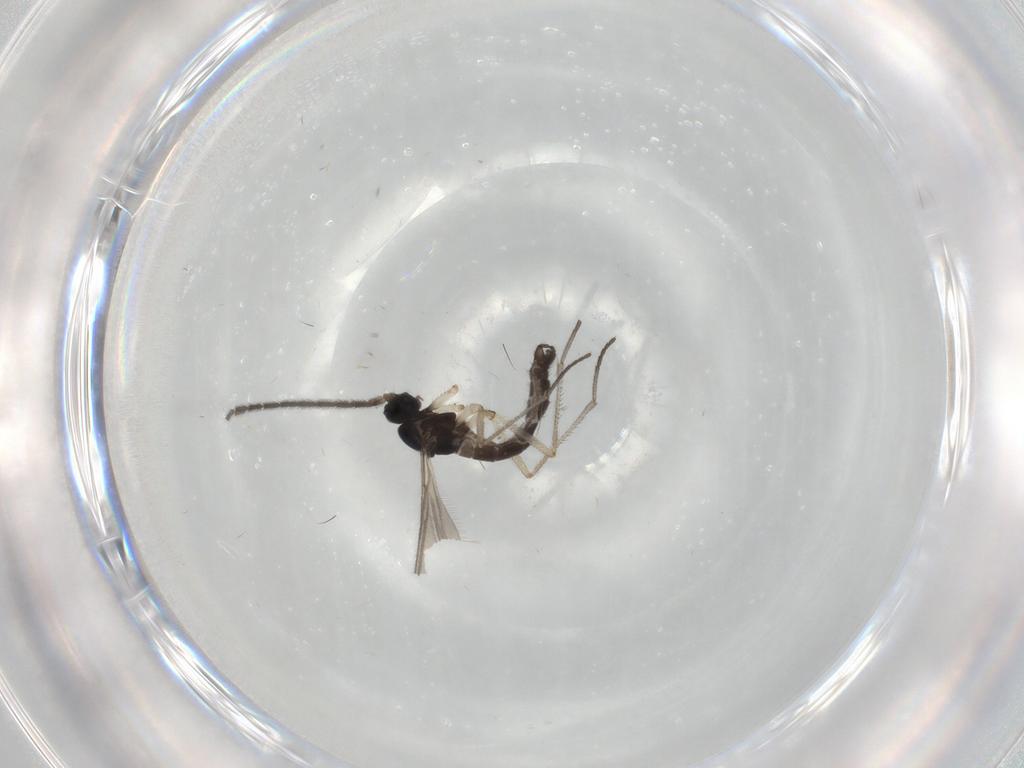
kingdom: Animalia
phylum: Arthropoda
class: Insecta
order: Diptera
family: Sciaridae
